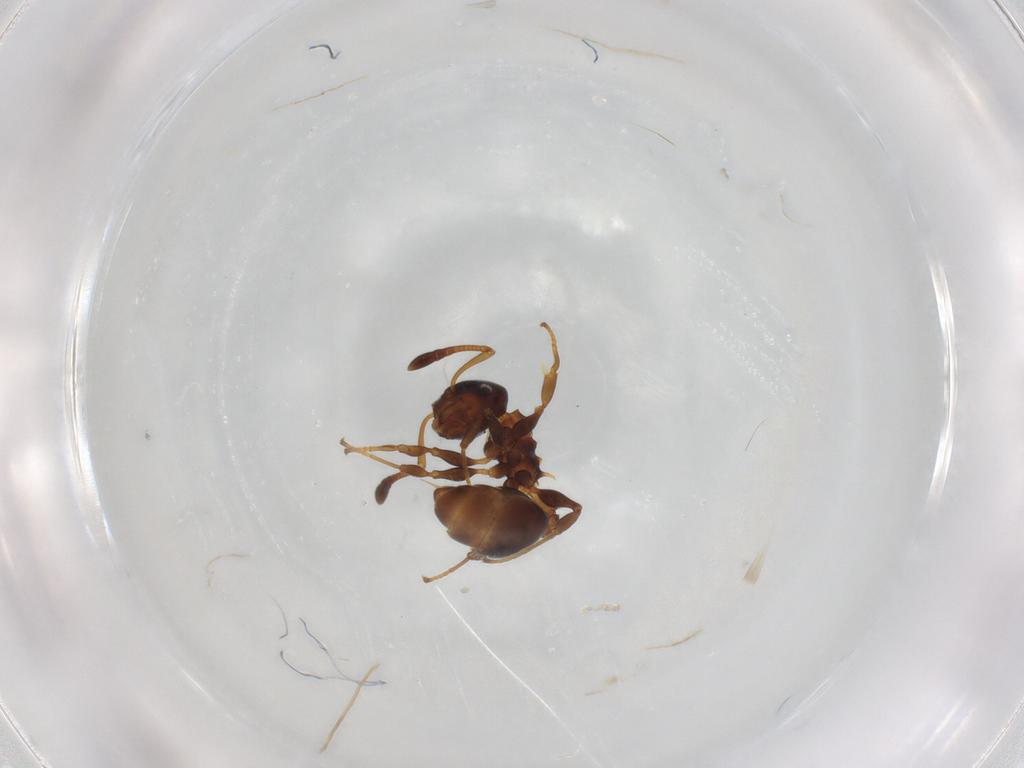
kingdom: Animalia
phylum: Arthropoda
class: Insecta
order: Hymenoptera
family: Formicidae
